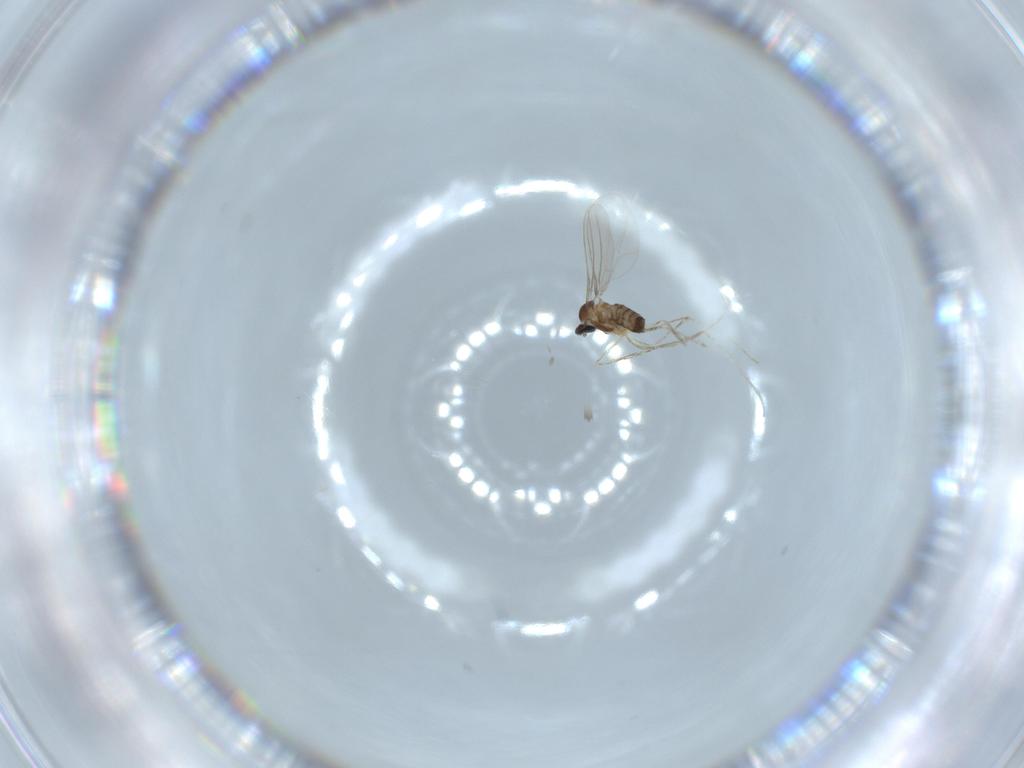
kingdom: Animalia
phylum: Arthropoda
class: Insecta
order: Diptera
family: Cecidomyiidae
